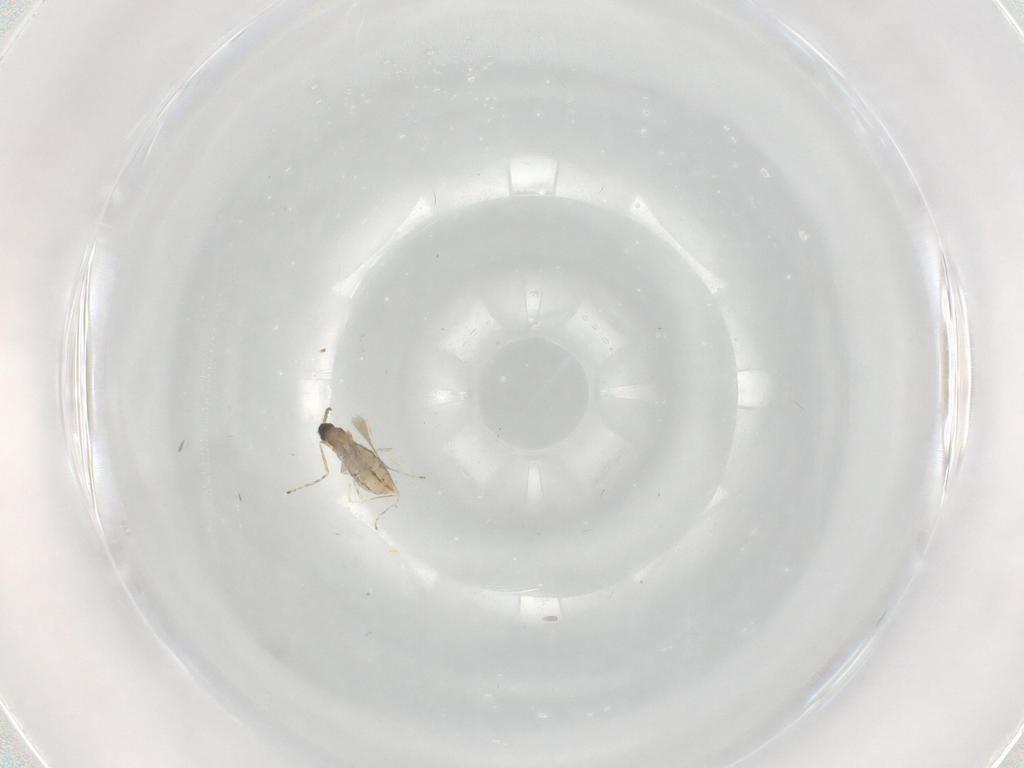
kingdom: Animalia
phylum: Arthropoda
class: Insecta
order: Diptera
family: Cecidomyiidae
